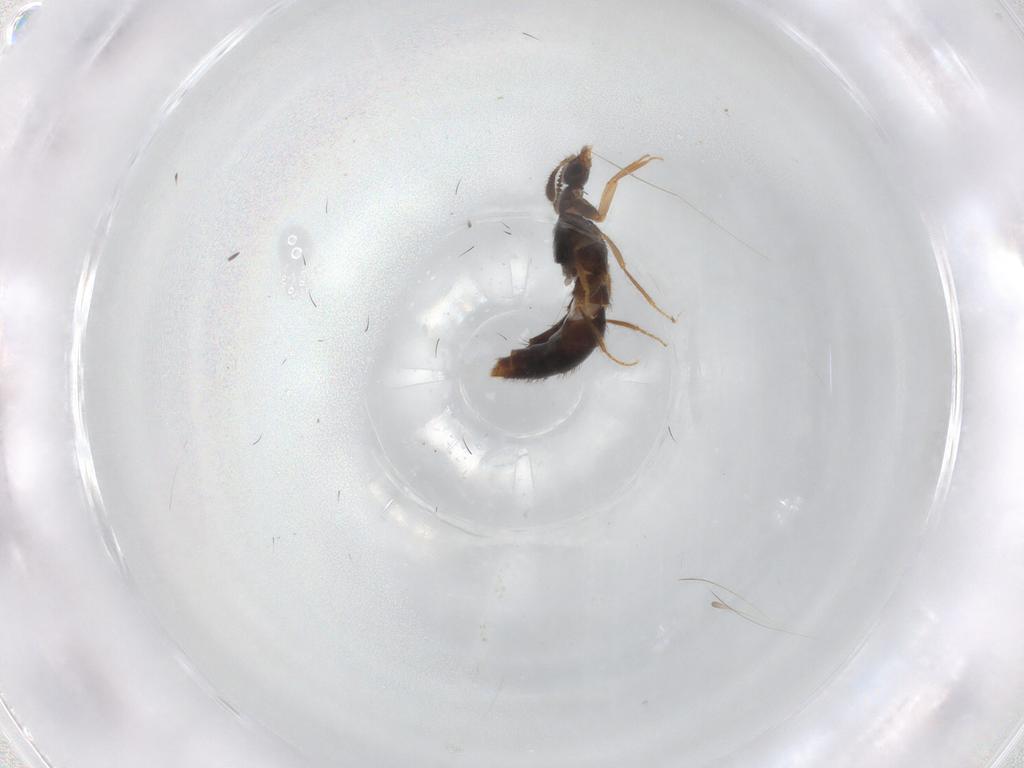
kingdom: Animalia
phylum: Arthropoda
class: Insecta
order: Coleoptera
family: Staphylinidae
